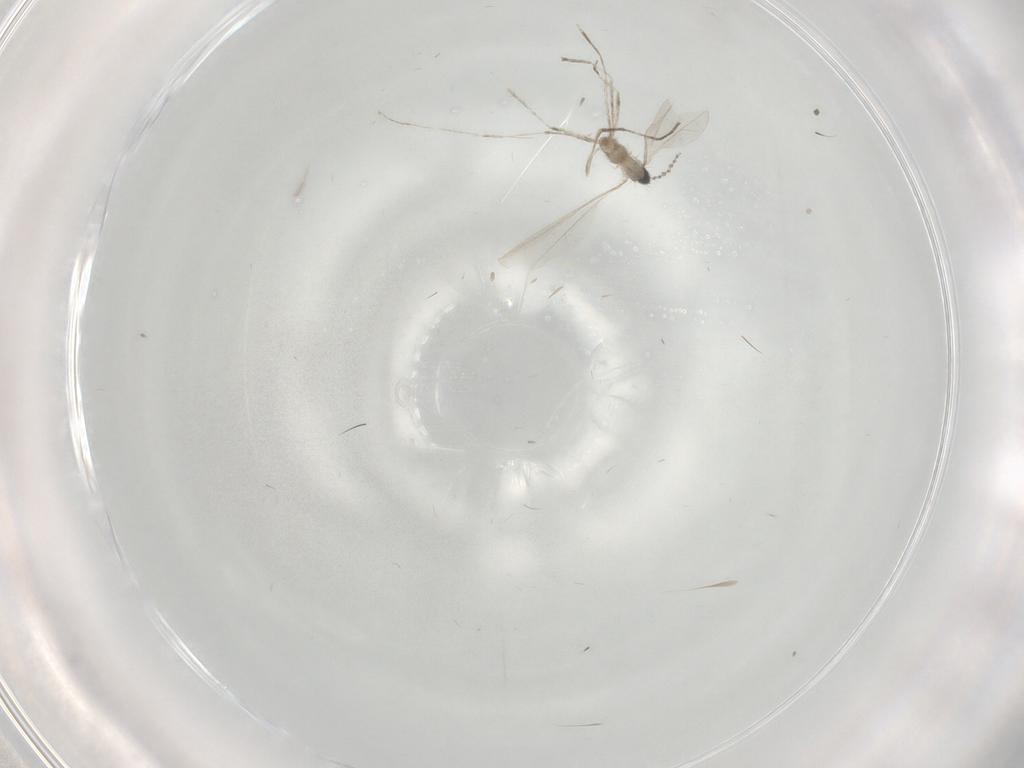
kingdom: Animalia
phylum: Arthropoda
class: Insecta
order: Diptera
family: Cecidomyiidae
